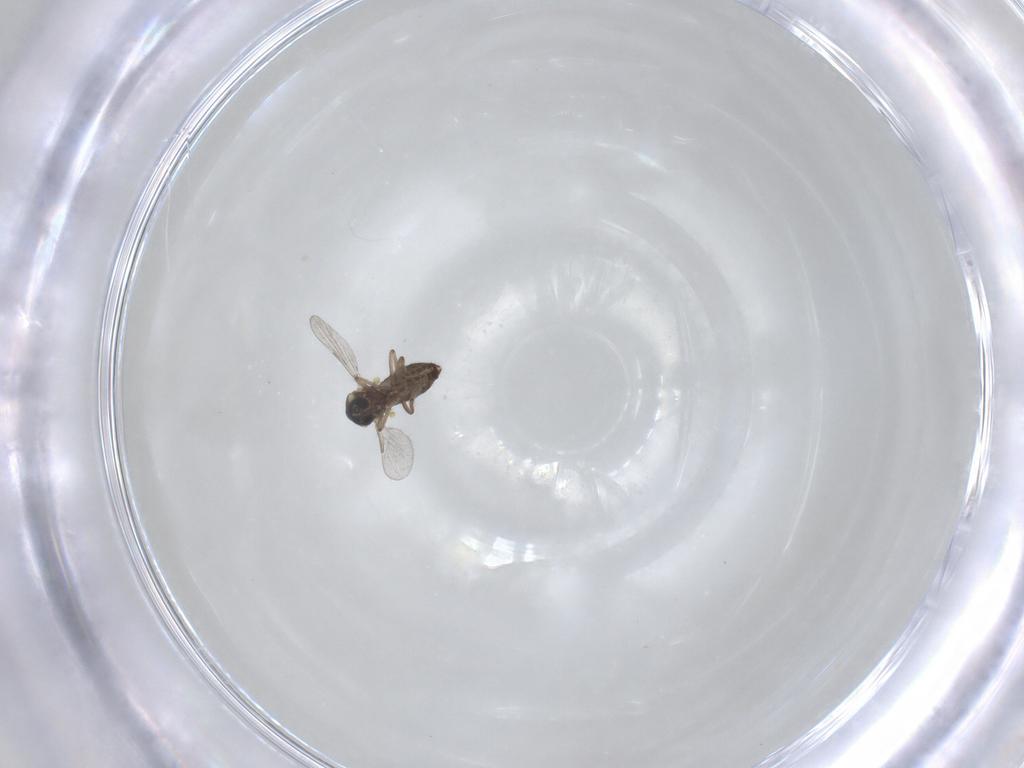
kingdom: Animalia
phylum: Arthropoda
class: Insecta
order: Diptera
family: Ceratopogonidae
